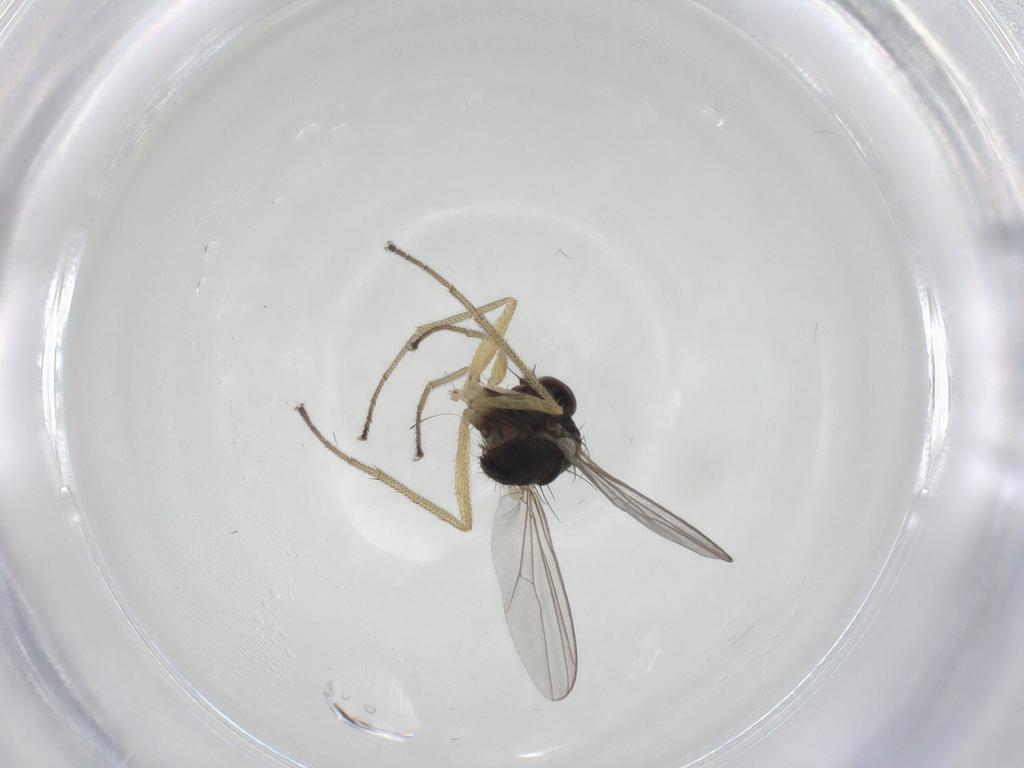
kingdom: Animalia
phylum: Arthropoda
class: Insecta
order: Diptera
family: Dolichopodidae
